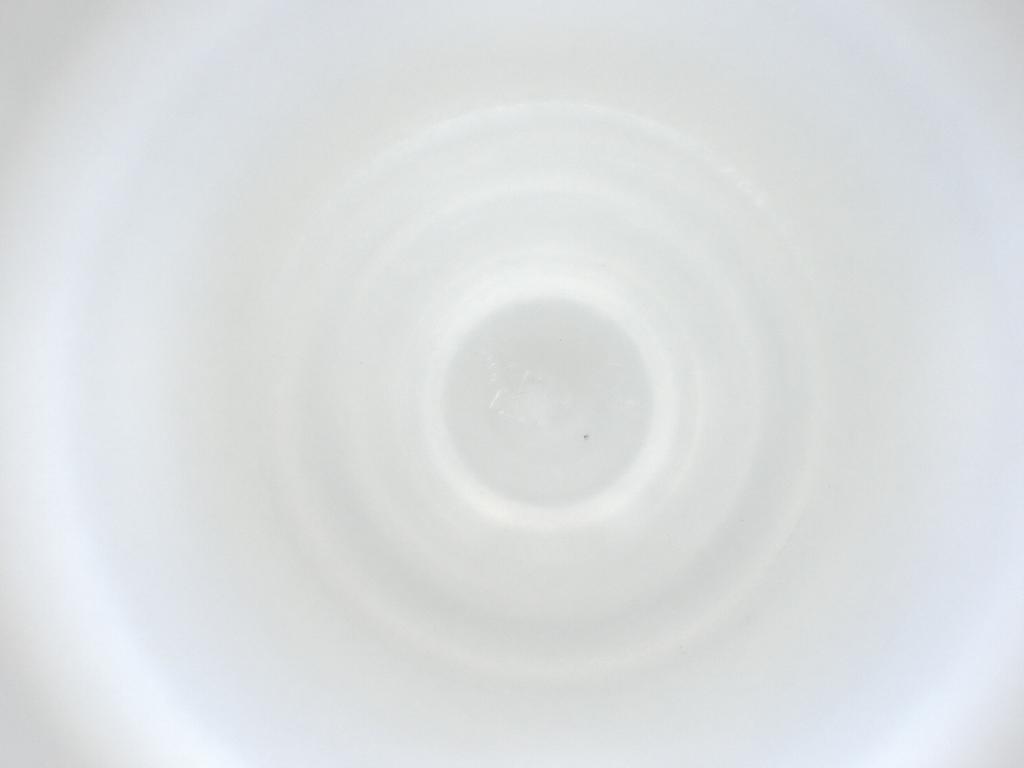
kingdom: Animalia
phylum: Arthropoda
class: Insecta
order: Diptera
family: Cecidomyiidae
